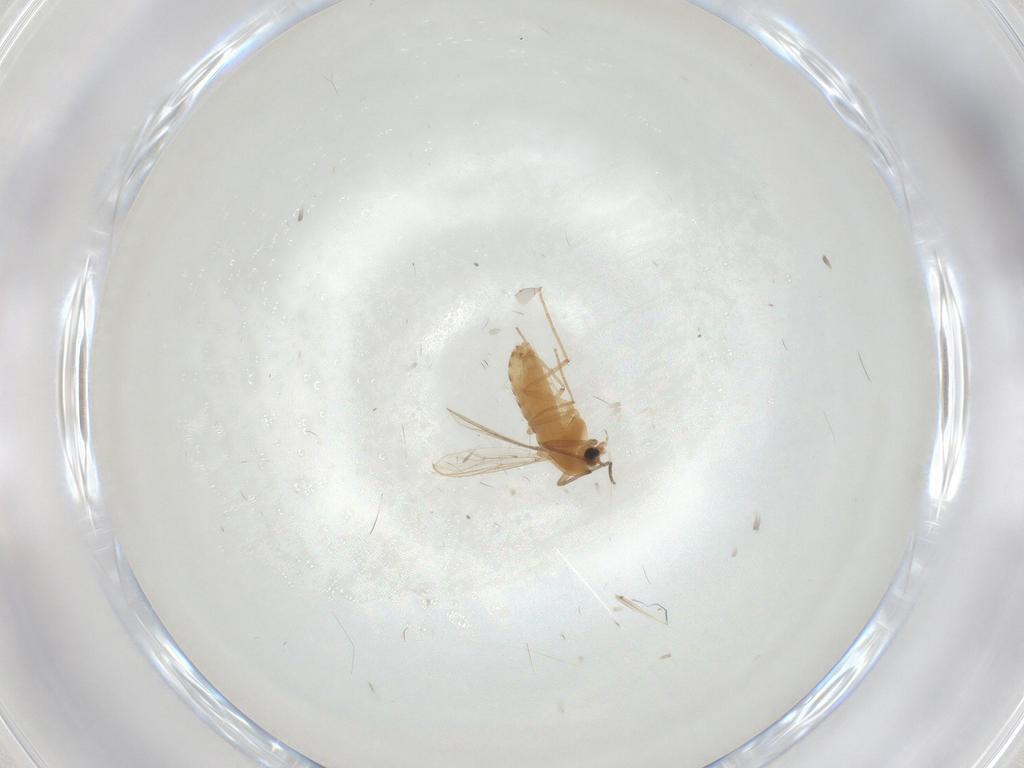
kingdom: Animalia
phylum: Arthropoda
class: Insecta
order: Diptera
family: Chironomidae
